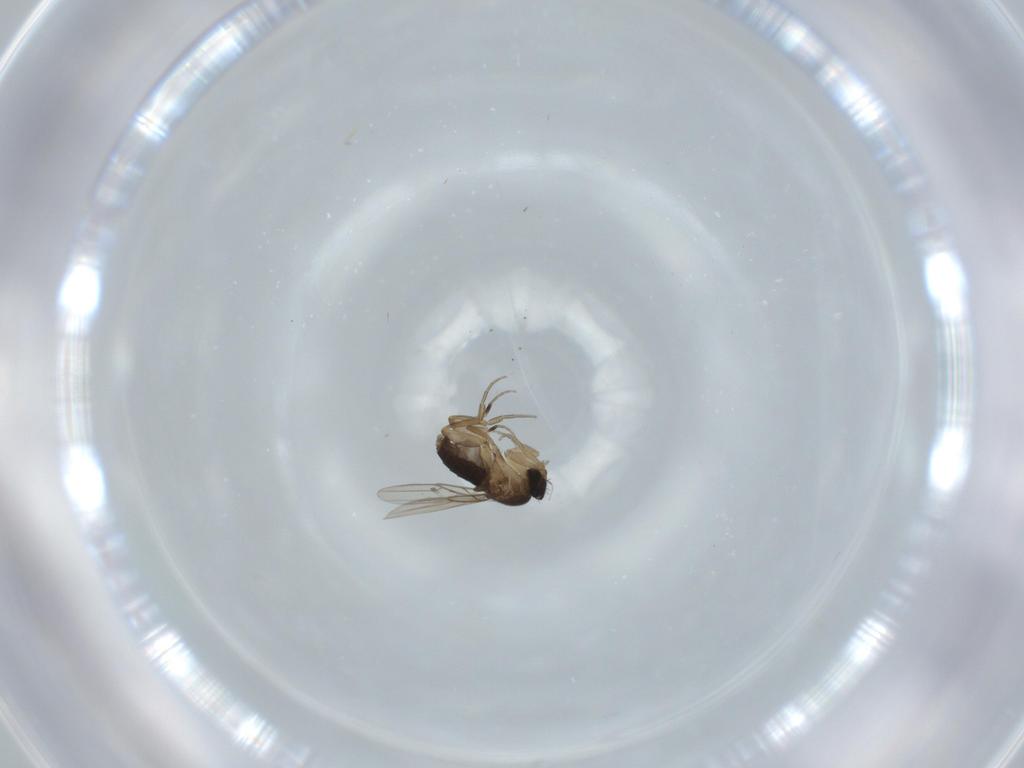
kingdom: Animalia
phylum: Arthropoda
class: Insecta
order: Diptera
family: Phoridae
